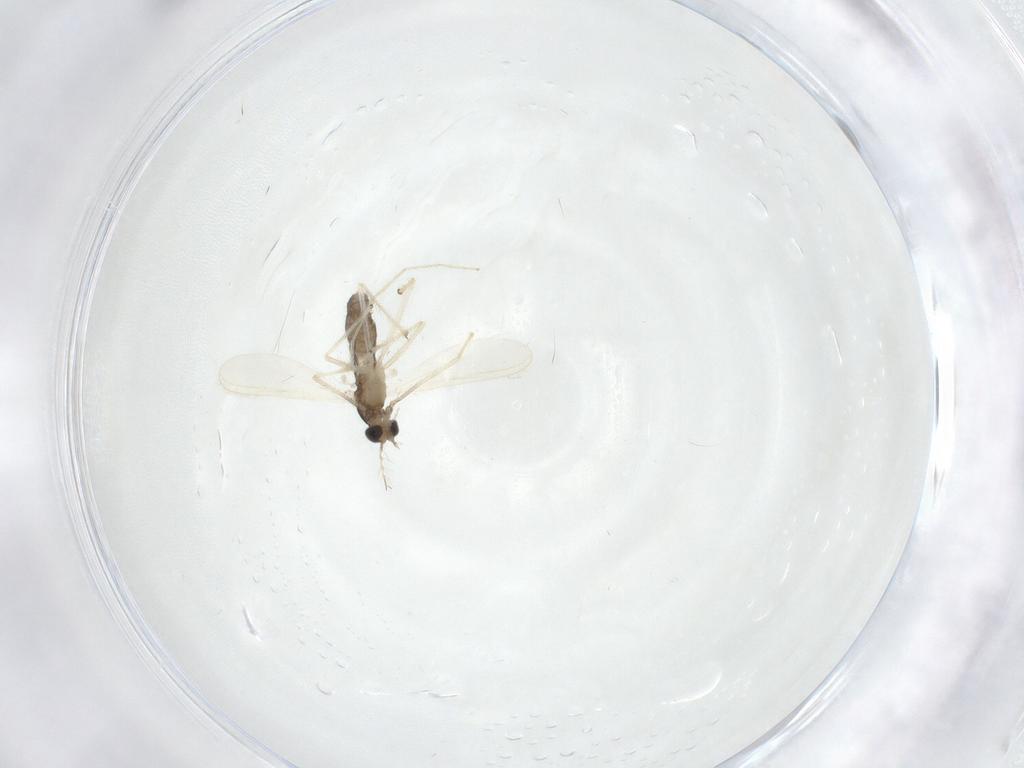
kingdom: Animalia
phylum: Arthropoda
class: Insecta
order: Diptera
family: Chironomidae
